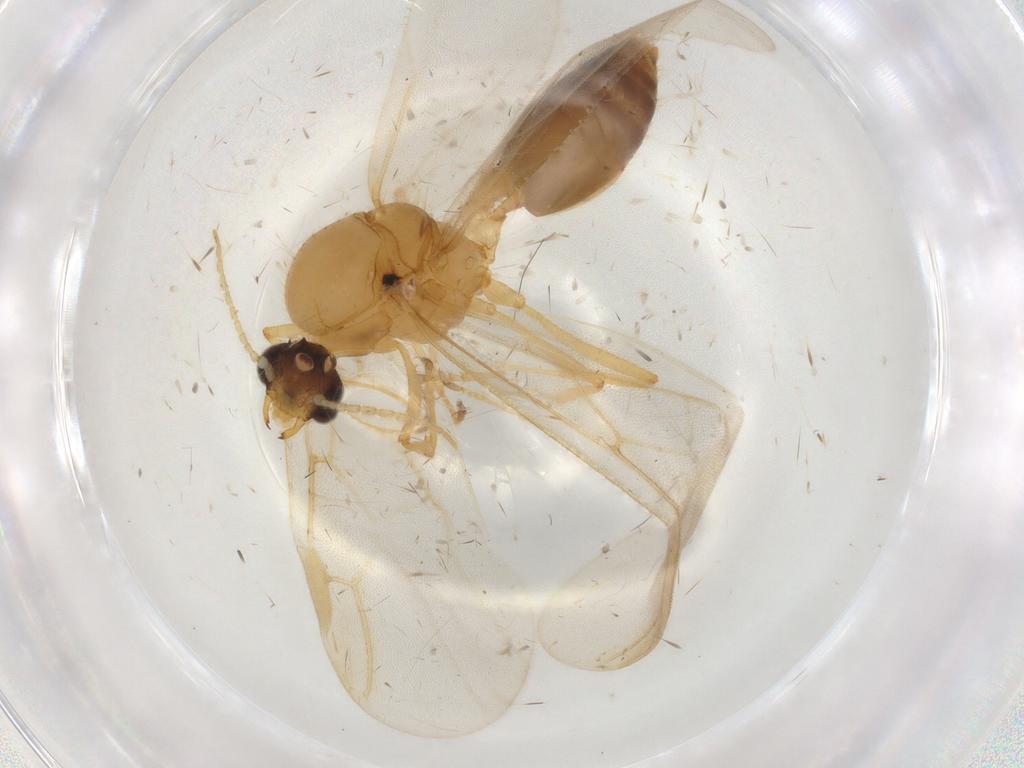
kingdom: Animalia
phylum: Arthropoda
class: Insecta
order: Hymenoptera
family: Formicidae
